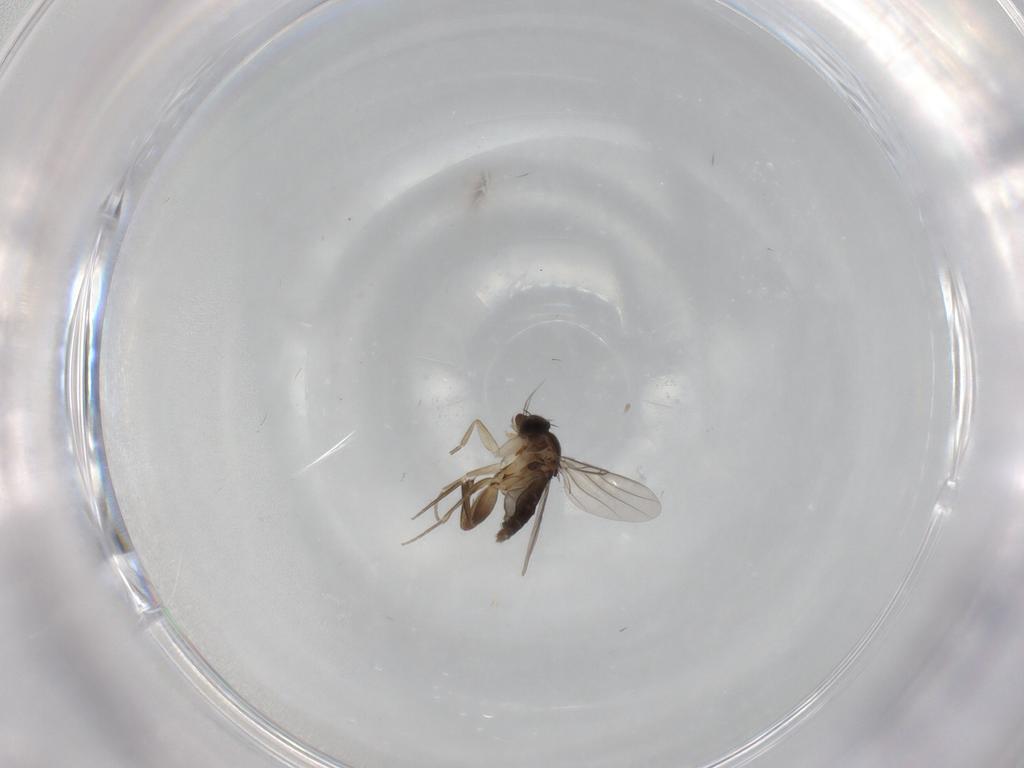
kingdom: Animalia
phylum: Arthropoda
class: Insecta
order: Diptera
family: Phoridae
